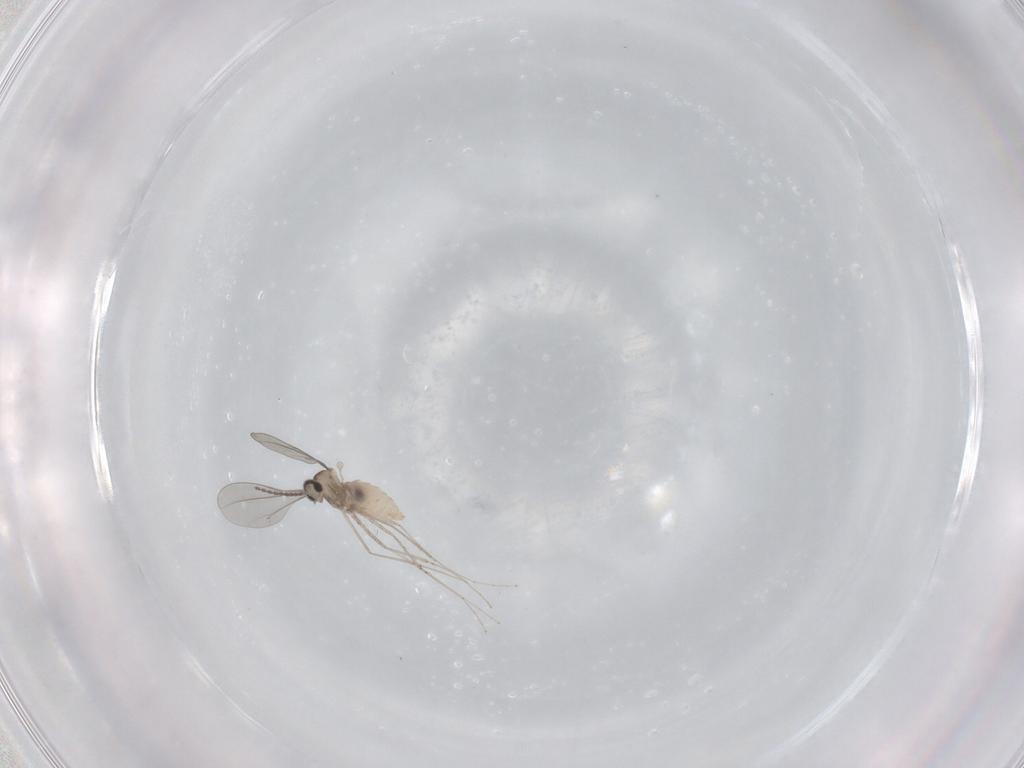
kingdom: Animalia
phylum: Arthropoda
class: Insecta
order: Diptera
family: Cecidomyiidae
